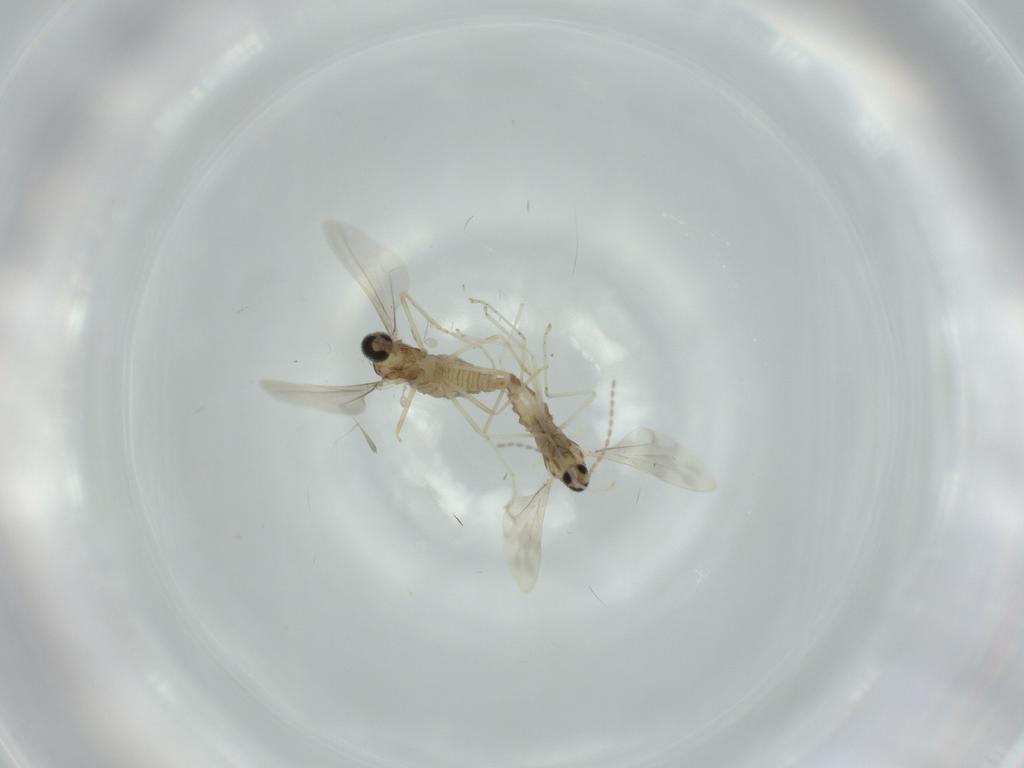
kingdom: Animalia
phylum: Arthropoda
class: Insecta
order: Diptera
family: Cecidomyiidae
